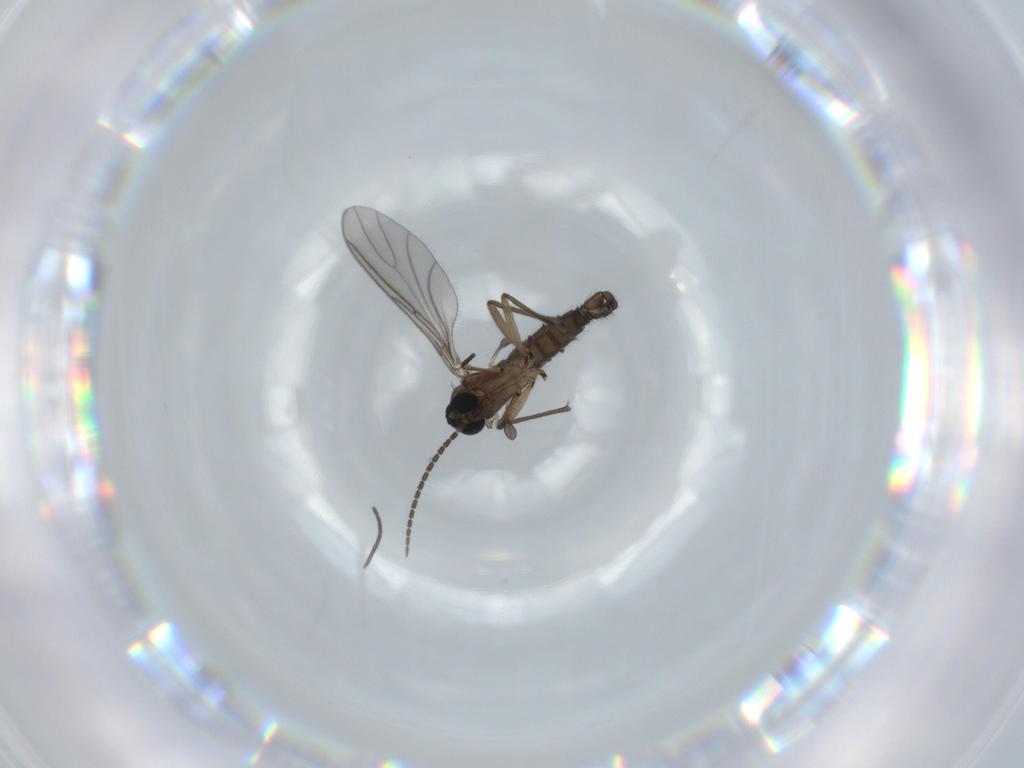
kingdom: Animalia
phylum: Arthropoda
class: Insecta
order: Diptera
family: Sciaridae
